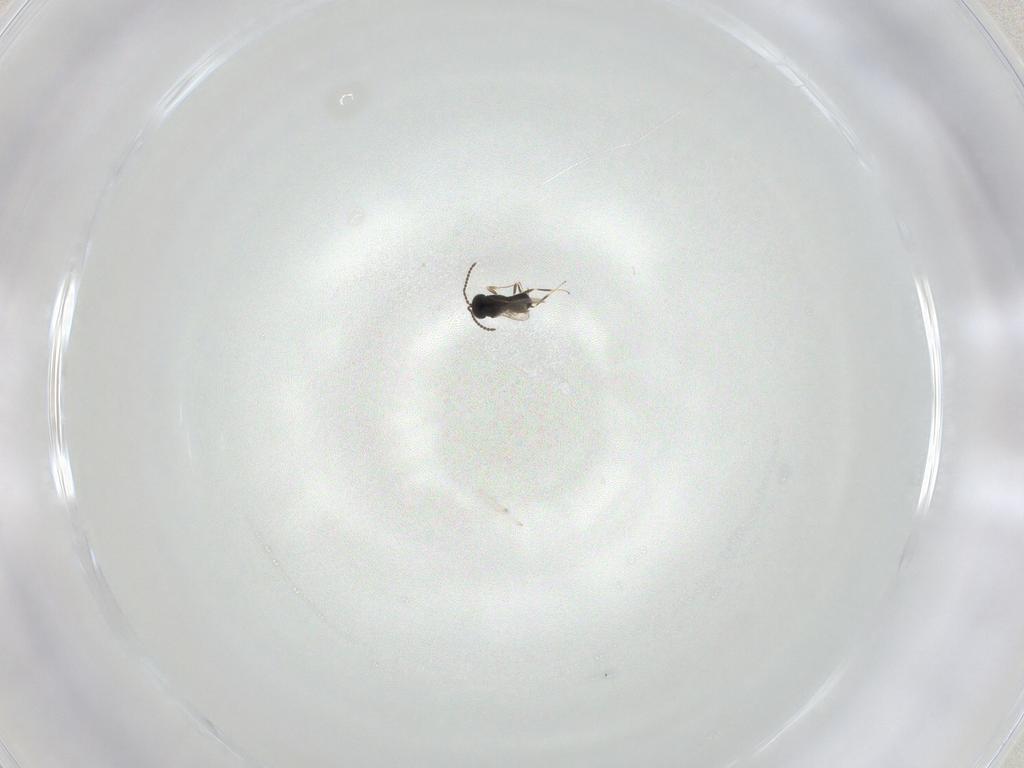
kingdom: Animalia
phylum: Arthropoda
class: Insecta
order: Hymenoptera
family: Scelionidae
